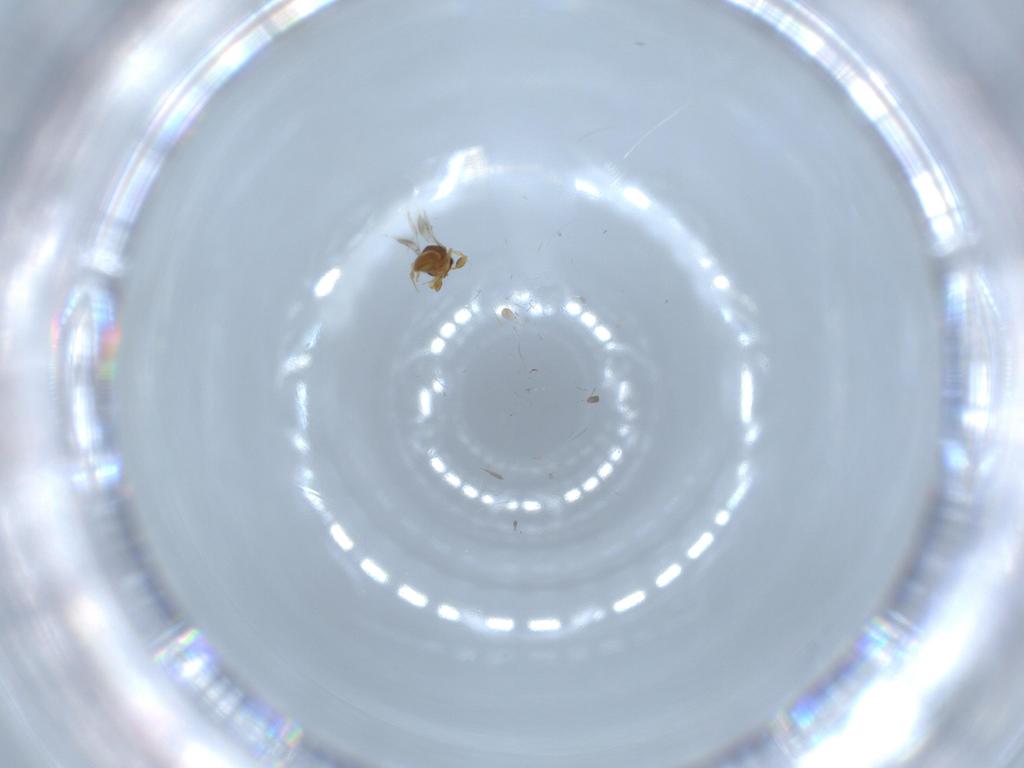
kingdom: Animalia
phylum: Arthropoda
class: Insecta
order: Hymenoptera
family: Scelionidae
